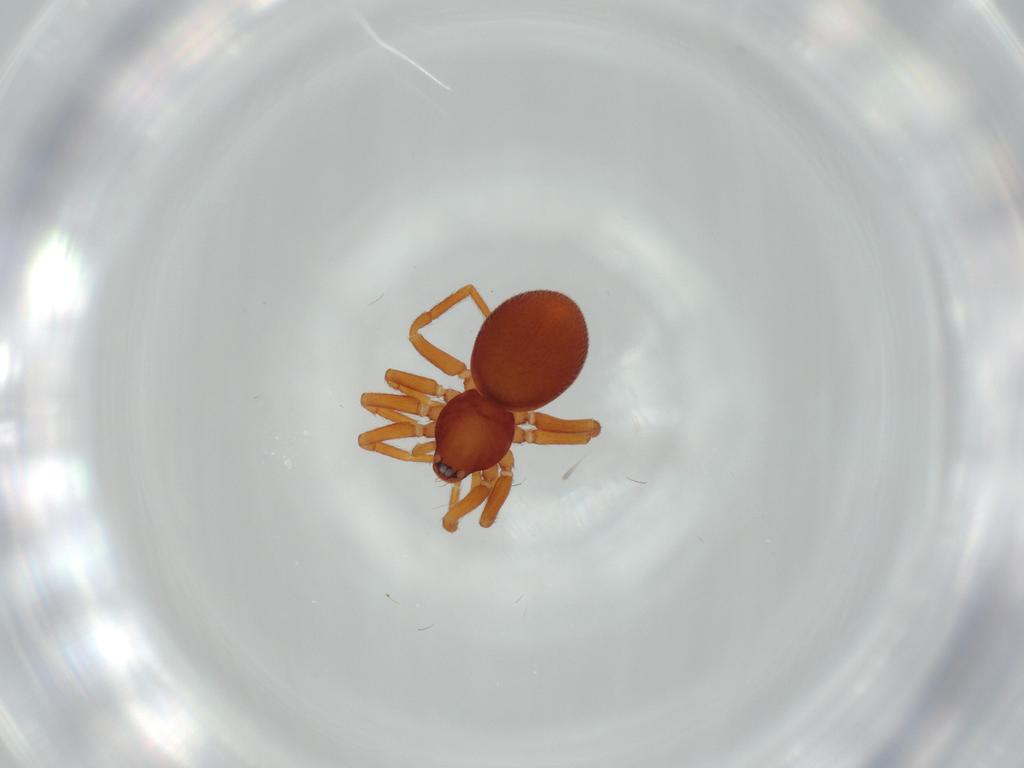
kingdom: Animalia
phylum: Arthropoda
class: Arachnida
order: Araneae
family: Oonopidae
